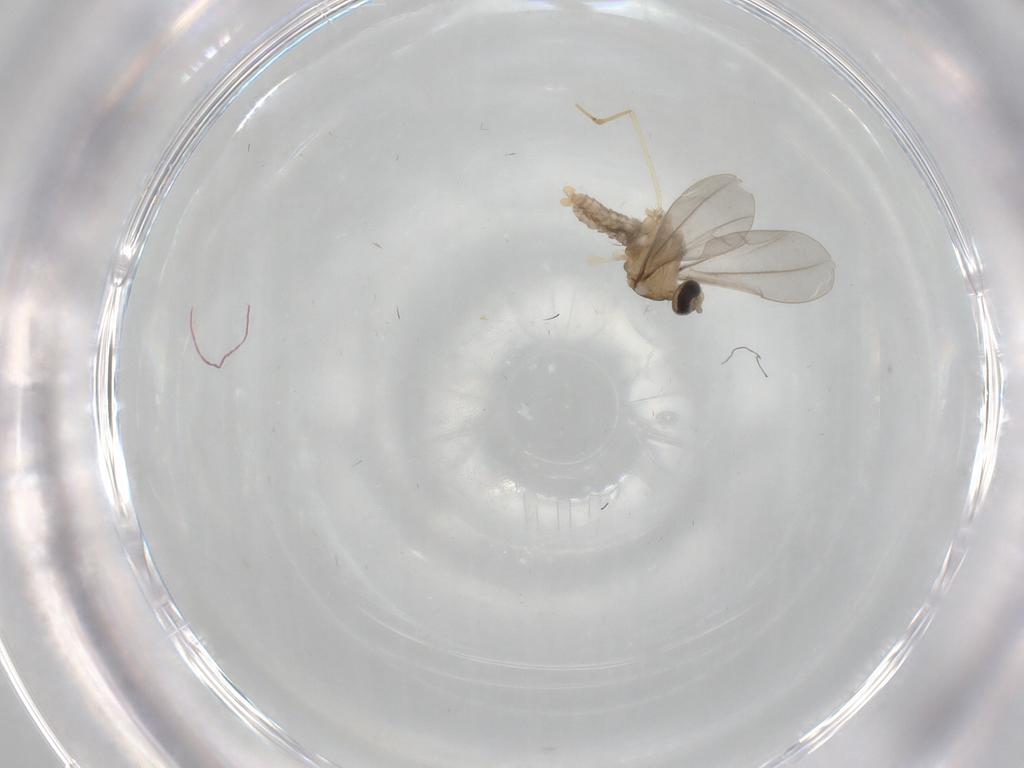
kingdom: Animalia
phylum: Arthropoda
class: Insecta
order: Diptera
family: Cecidomyiidae
